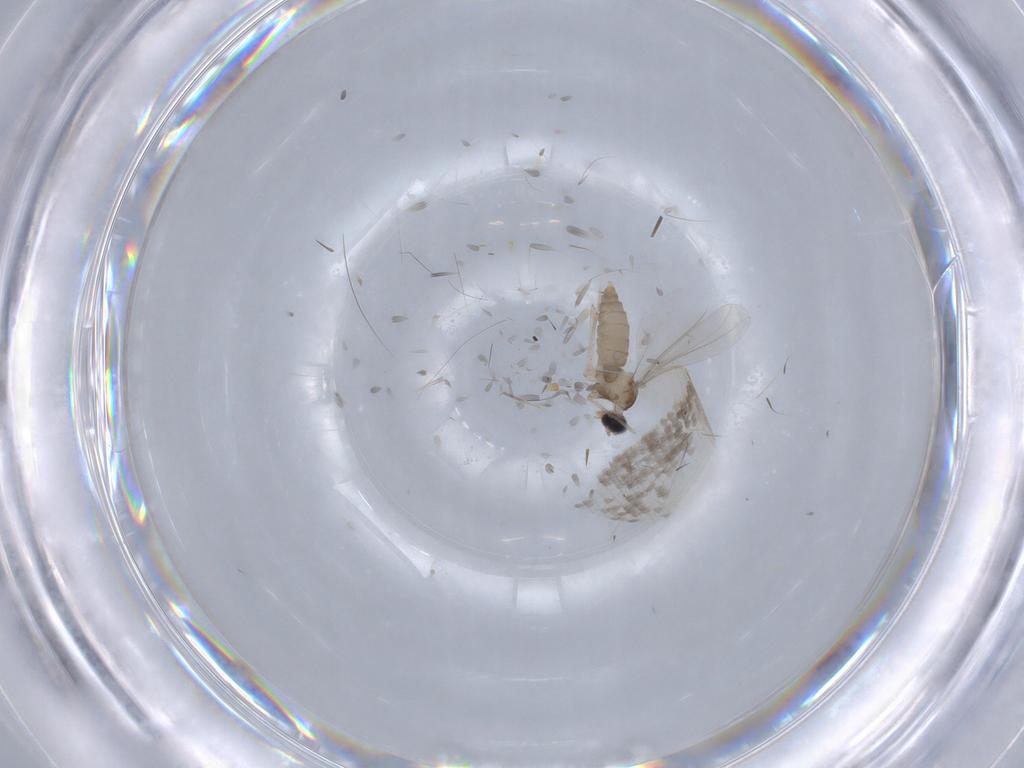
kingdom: Animalia
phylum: Arthropoda
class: Insecta
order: Diptera
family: Cecidomyiidae
